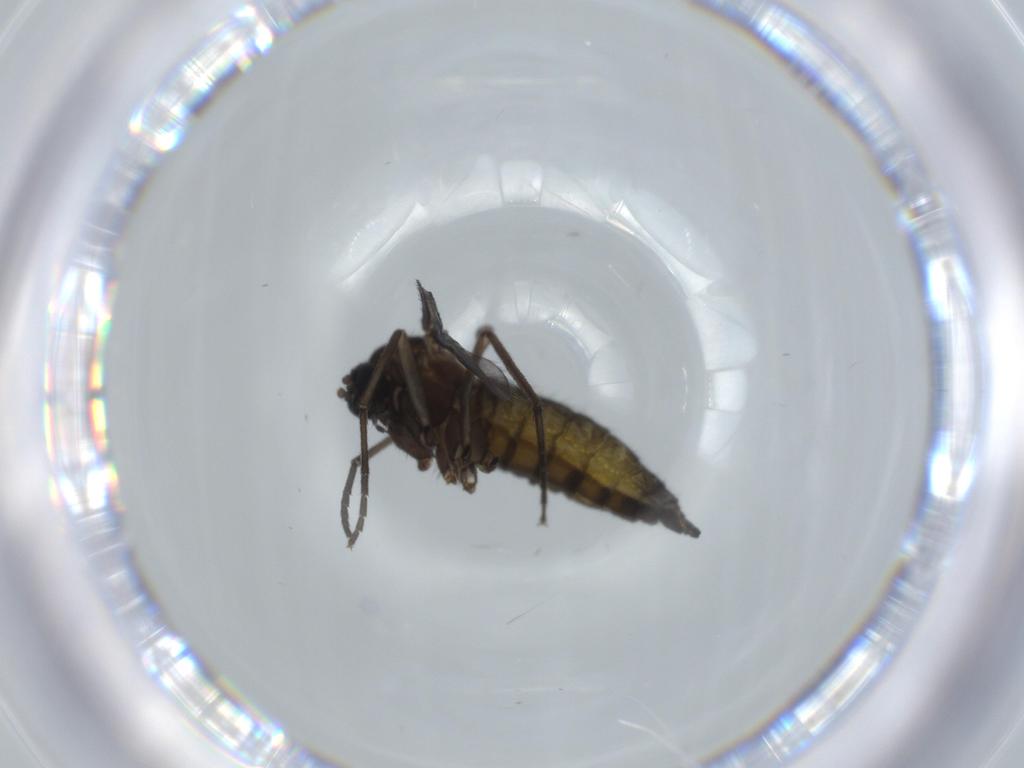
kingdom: Animalia
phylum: Arthropoda
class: Insecta
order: Diptera
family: Sciaridae
